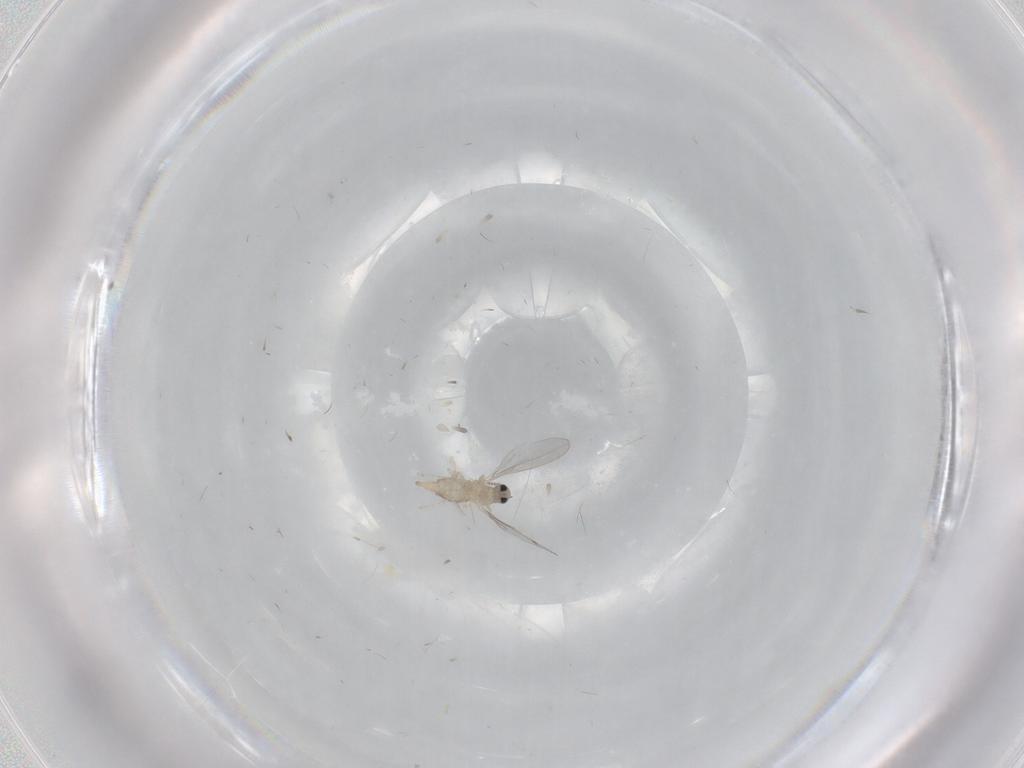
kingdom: Animalia
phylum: Arthropoda
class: Insecta
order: Diptera
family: Cecidomyiidae
